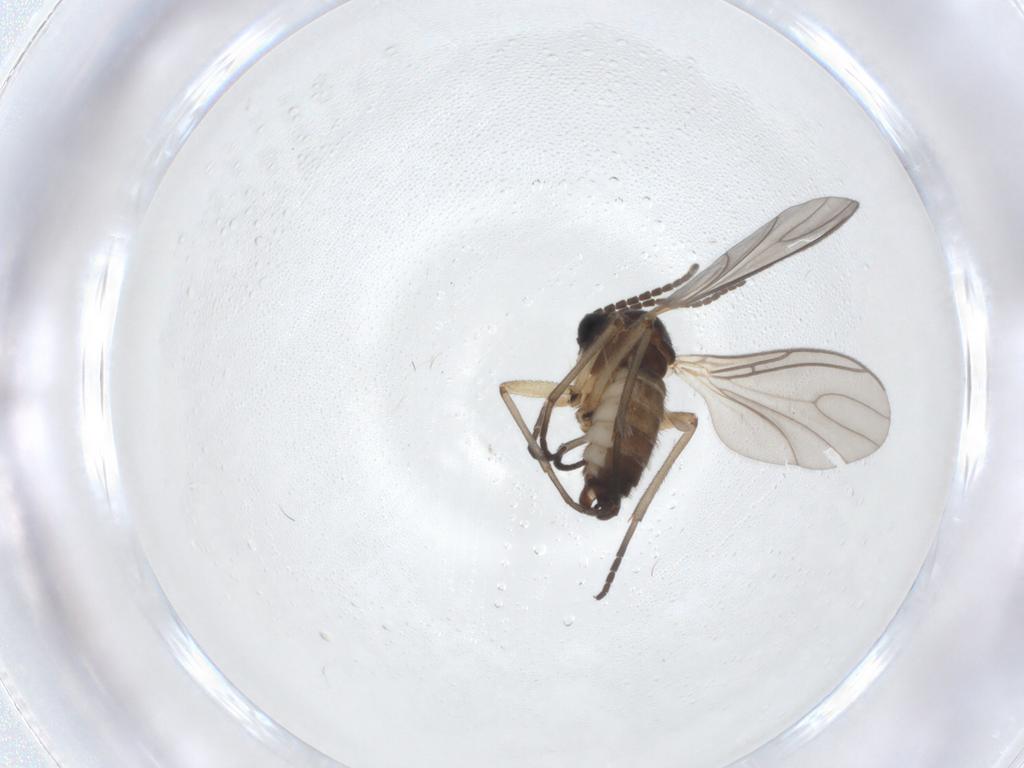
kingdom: Animalia
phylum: Arthropoda
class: Insecta
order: Diptera
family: Sciaridae
